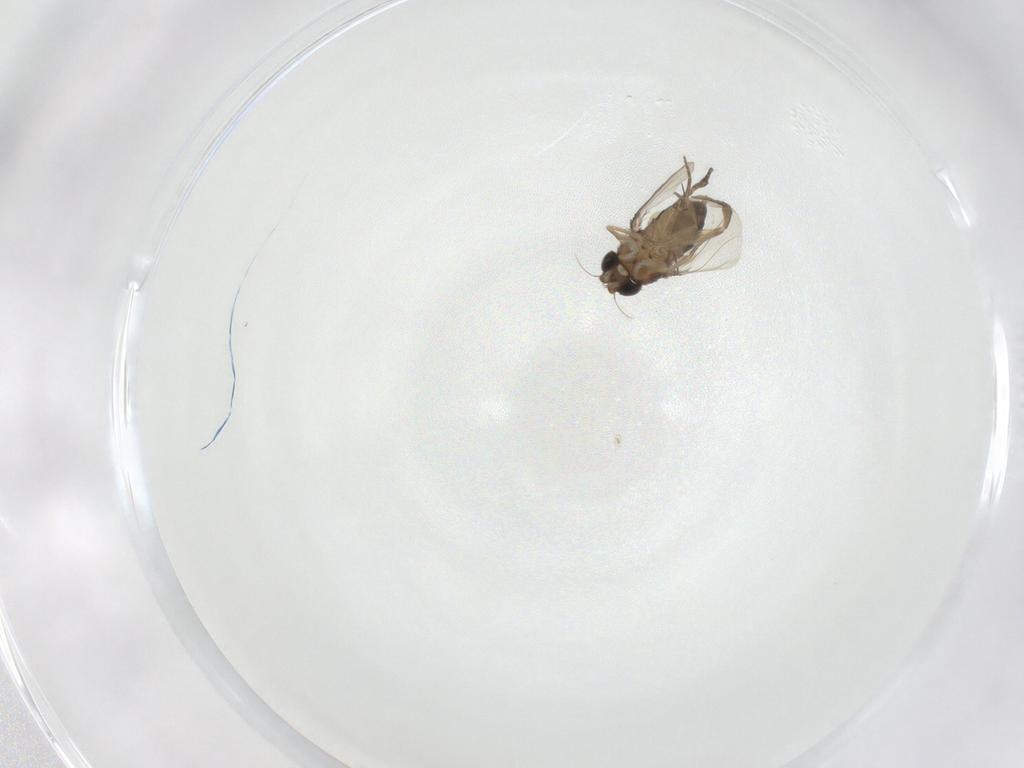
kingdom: Animalia
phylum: Arthropoda
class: Insecta
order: Diptera
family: Phoridae
